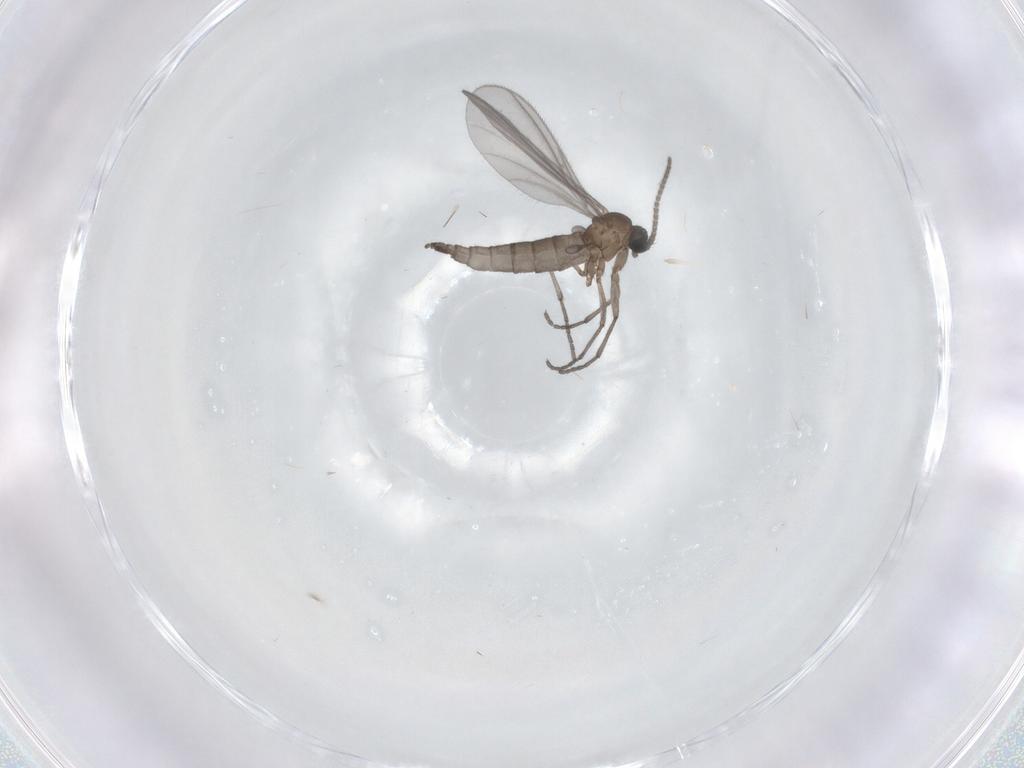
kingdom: Animalia
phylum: Arthropoda
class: Insecta
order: Diptera
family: Sciaridae
